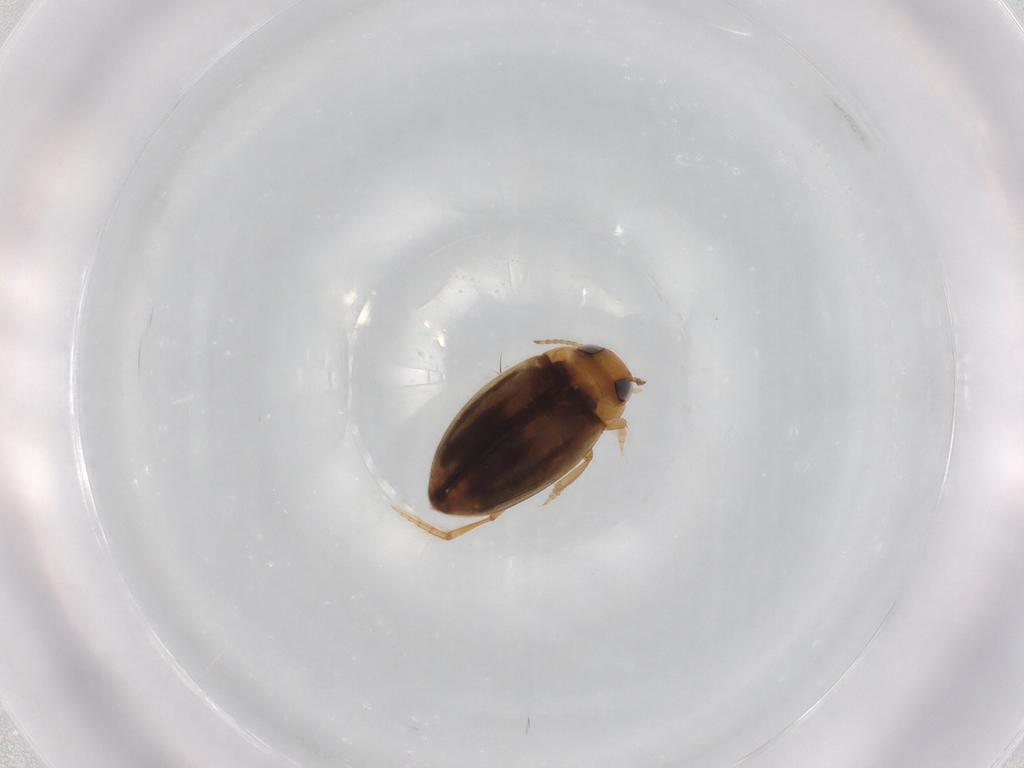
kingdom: Animalia
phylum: Arthropoda
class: Insecta
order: Coleoptera
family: Dytiscidae
